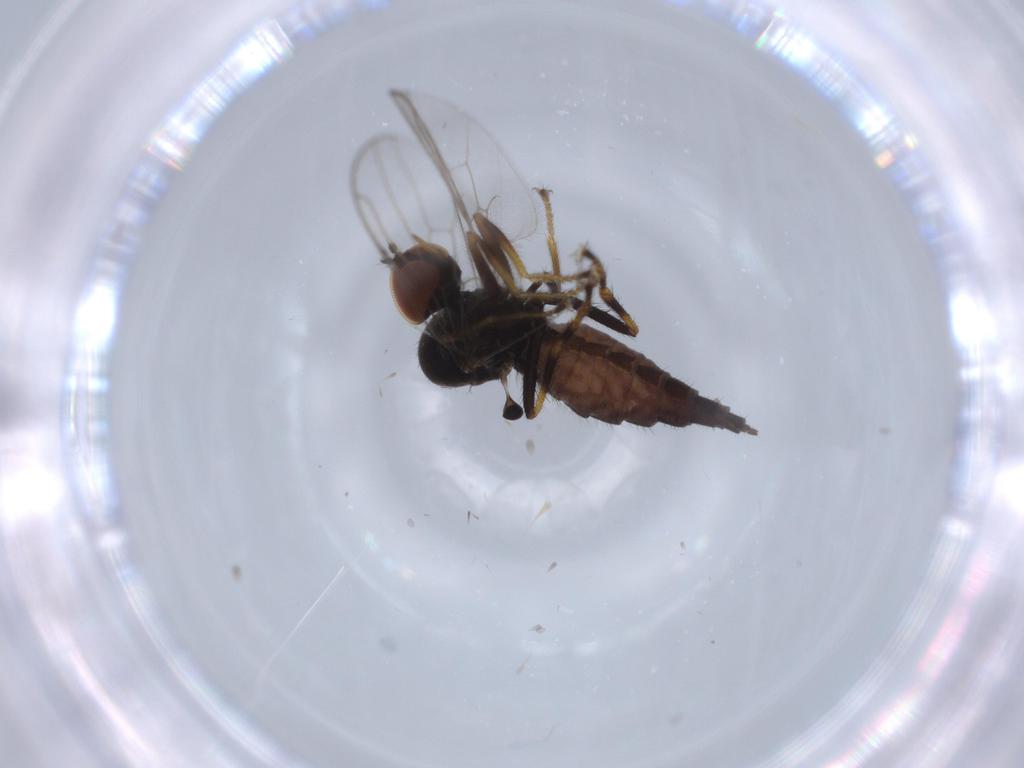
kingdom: Animalia
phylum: Arthropoda
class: Insecta
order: Diptera
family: Hybotidae
